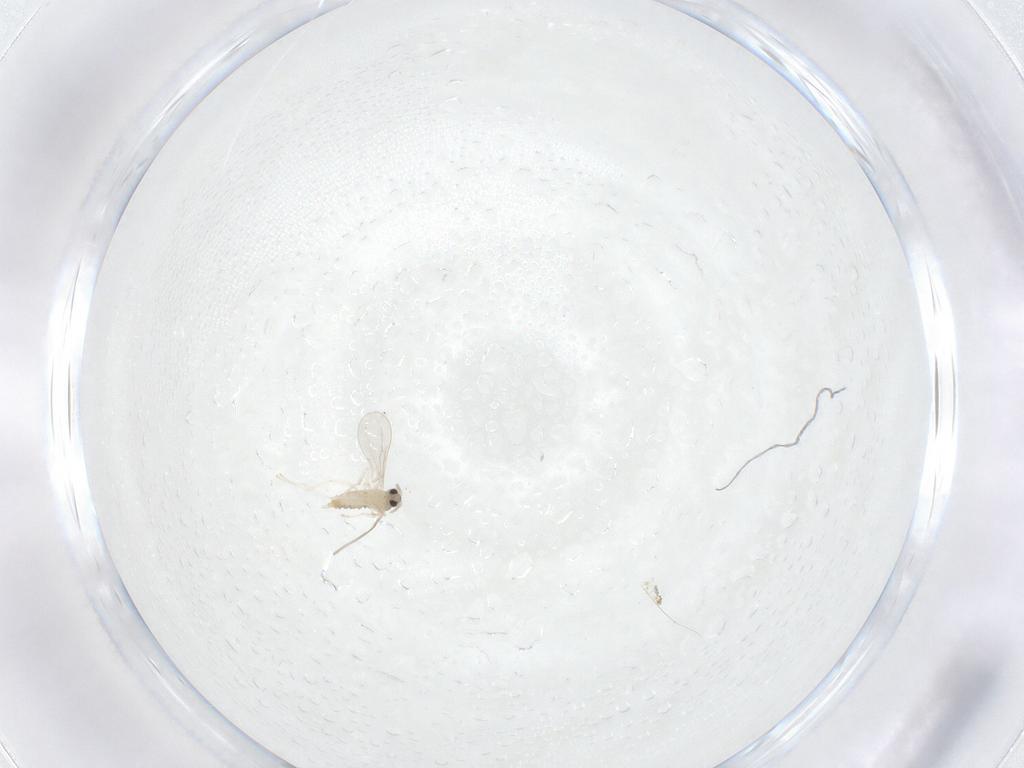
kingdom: Animalia
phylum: Arthropoda
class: Insecta
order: Diptera
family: Cecidomyiidae
